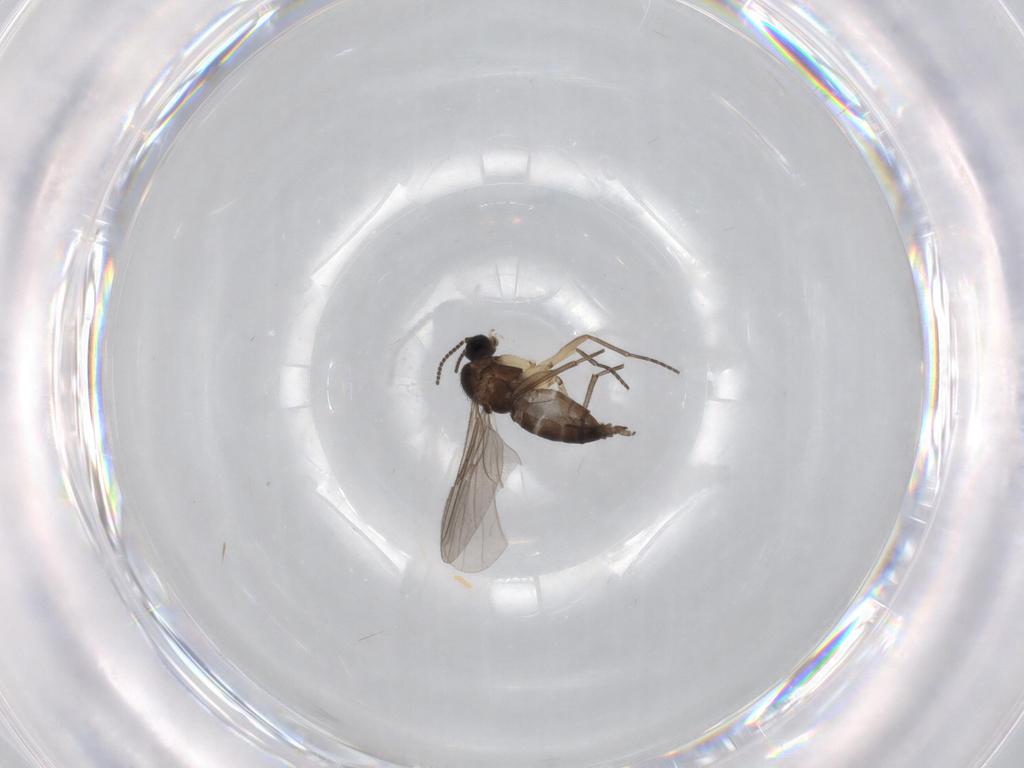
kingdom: Animalia
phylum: Arthropoda
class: Insecta
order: Diptera
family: Sciaridae
